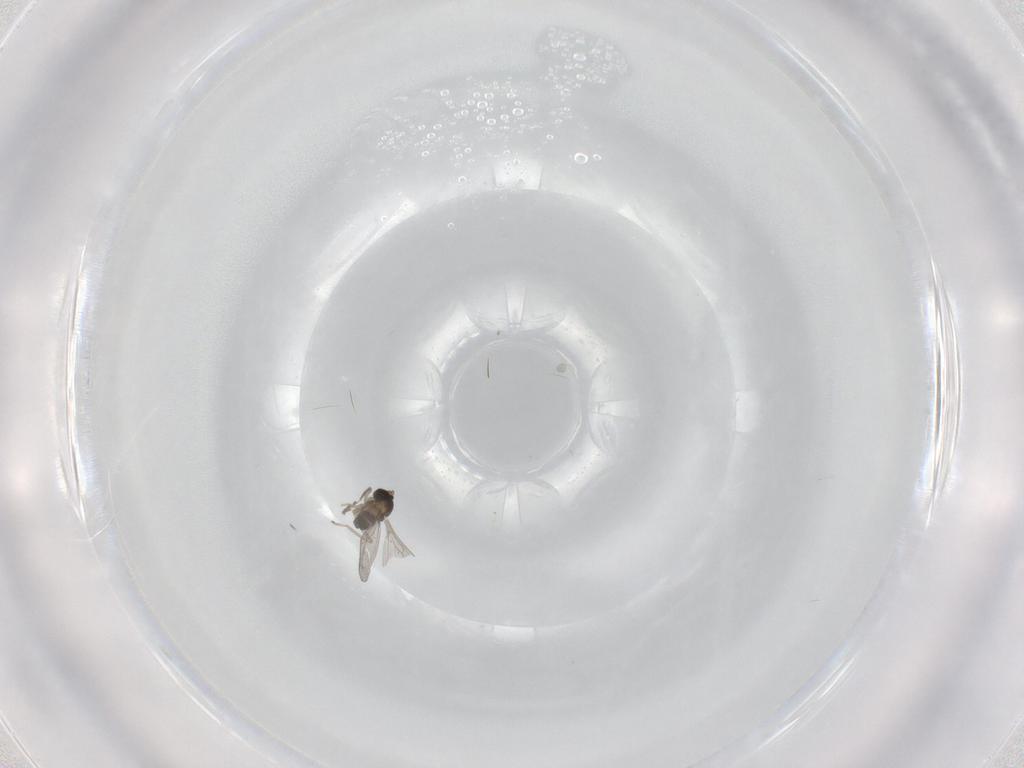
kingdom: Animalia
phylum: Arthropoda
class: Insecta
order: Diptera
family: Cecidomyiidae
